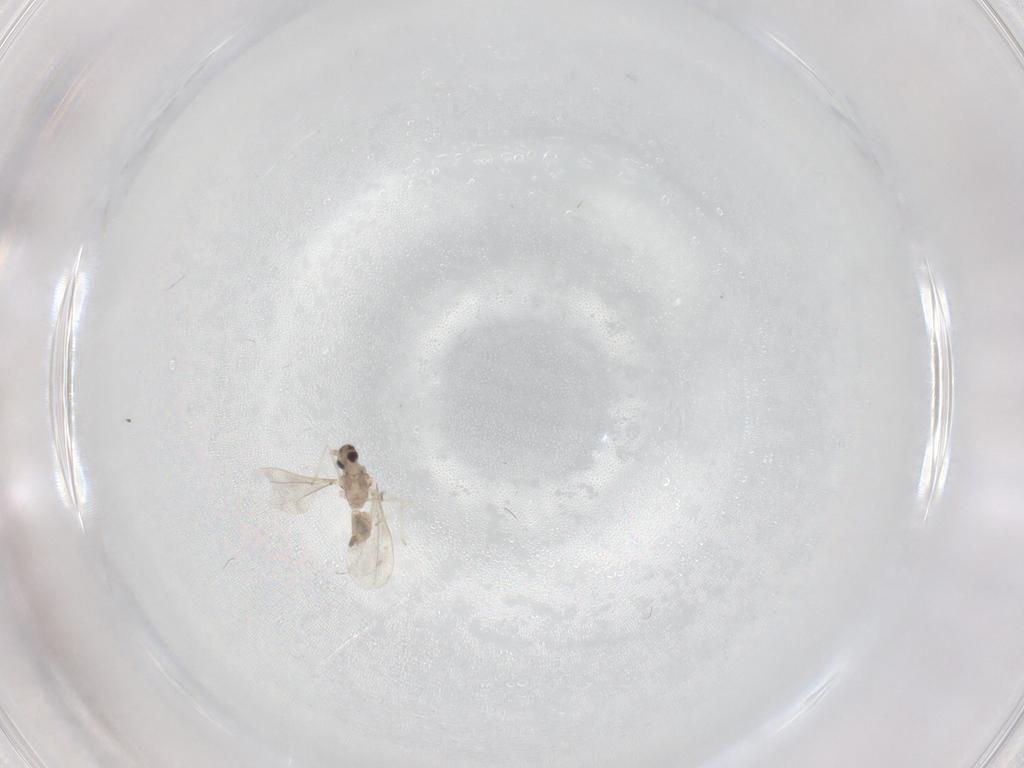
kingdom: Animalia
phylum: Arthropoda
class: Insecta
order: Diptera
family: Cecidomyiidae
